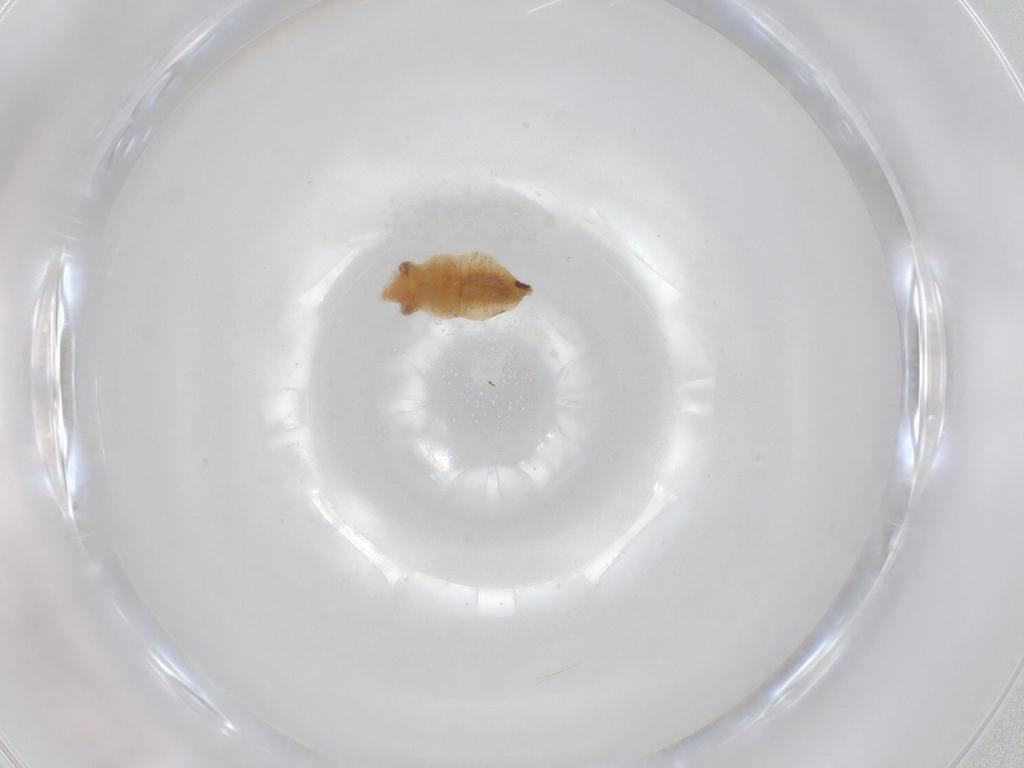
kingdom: Animalia
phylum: Arthropoda
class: Insecta
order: Hemiptera
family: Miridae
